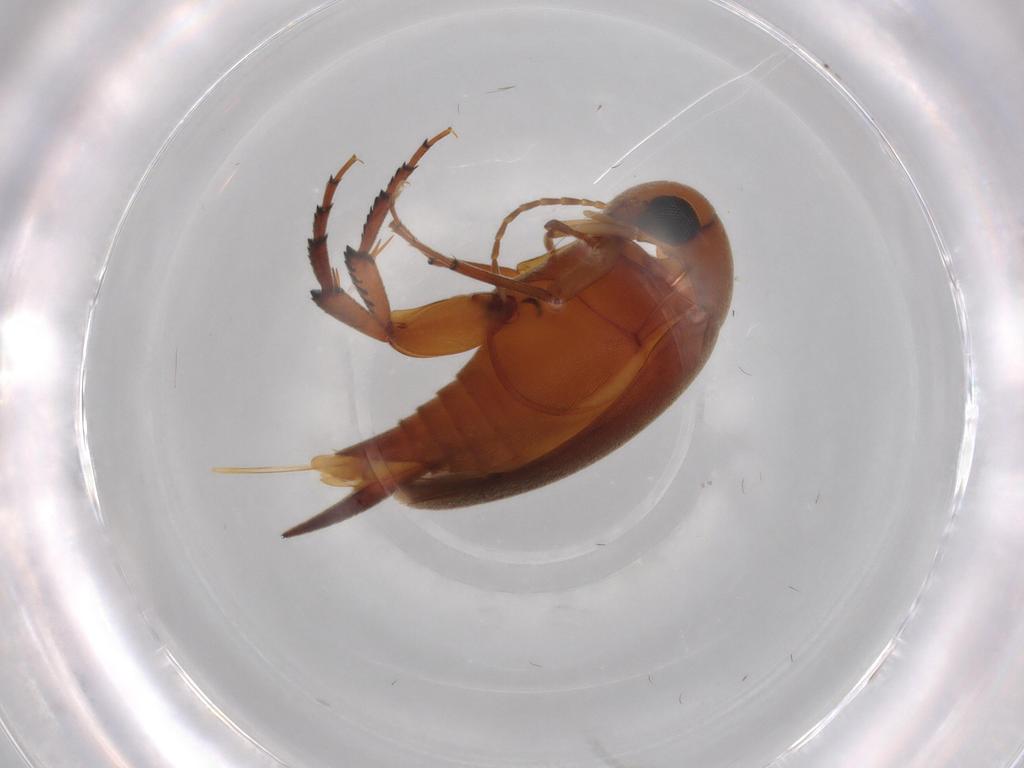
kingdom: Animalia
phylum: Arthropoda
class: Insecta
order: Coleoptera
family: Mordellidae
